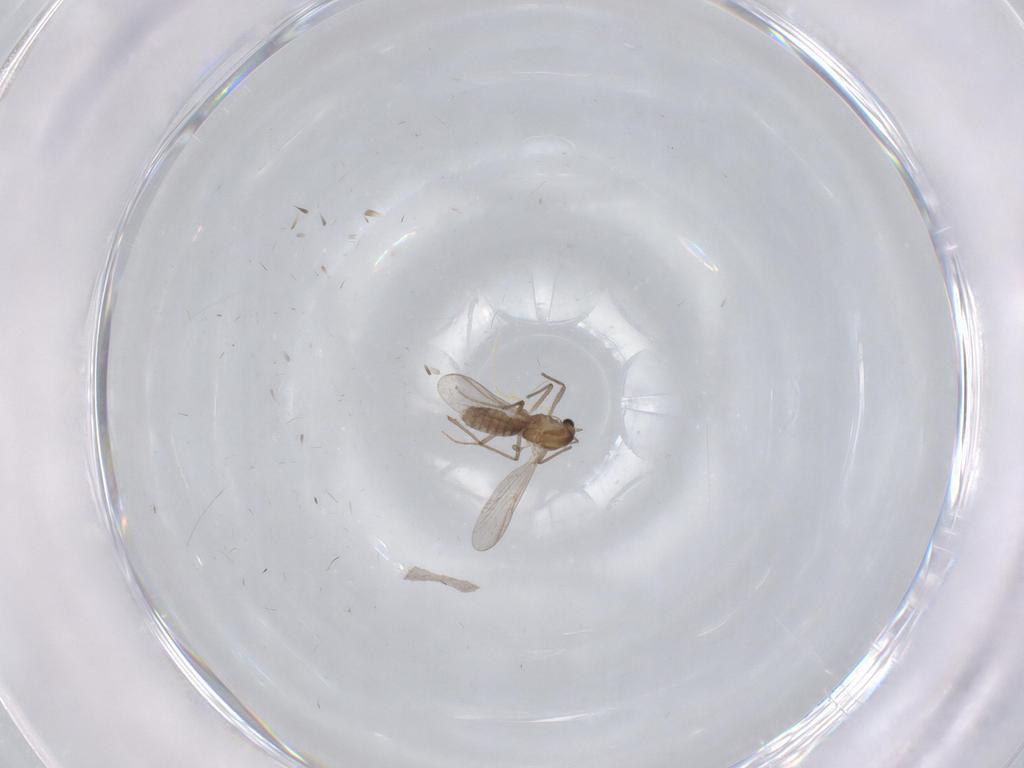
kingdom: Animalia
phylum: Arthropoda
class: Insecta
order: Diptera
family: Chironomidae
